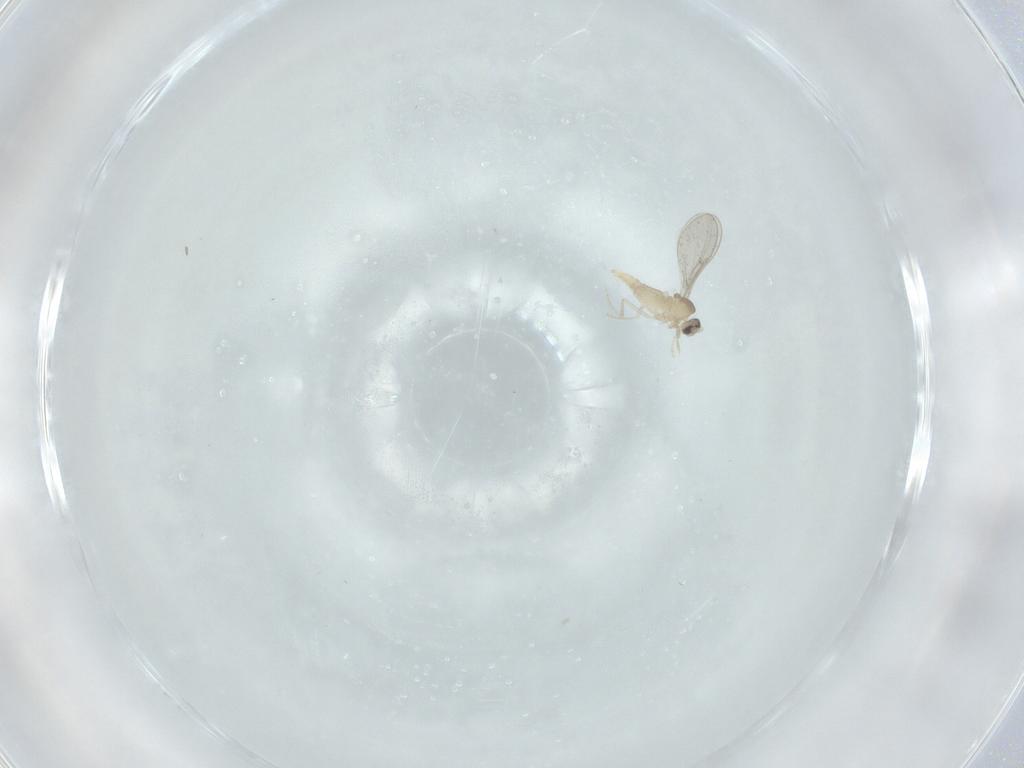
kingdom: Animalia
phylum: Arthropoda
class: Insecta
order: Diptera
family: Cecidomyiidae
